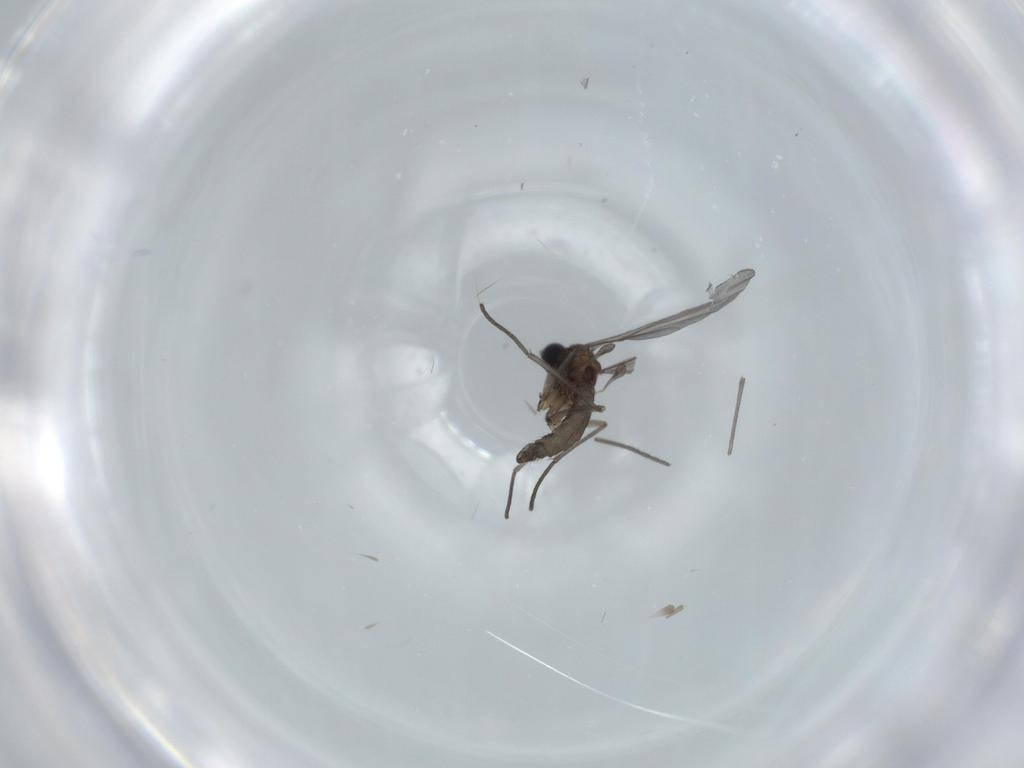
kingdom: Animalia
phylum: Arthropoda
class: Insecta
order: Diptera
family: Sciaridae
